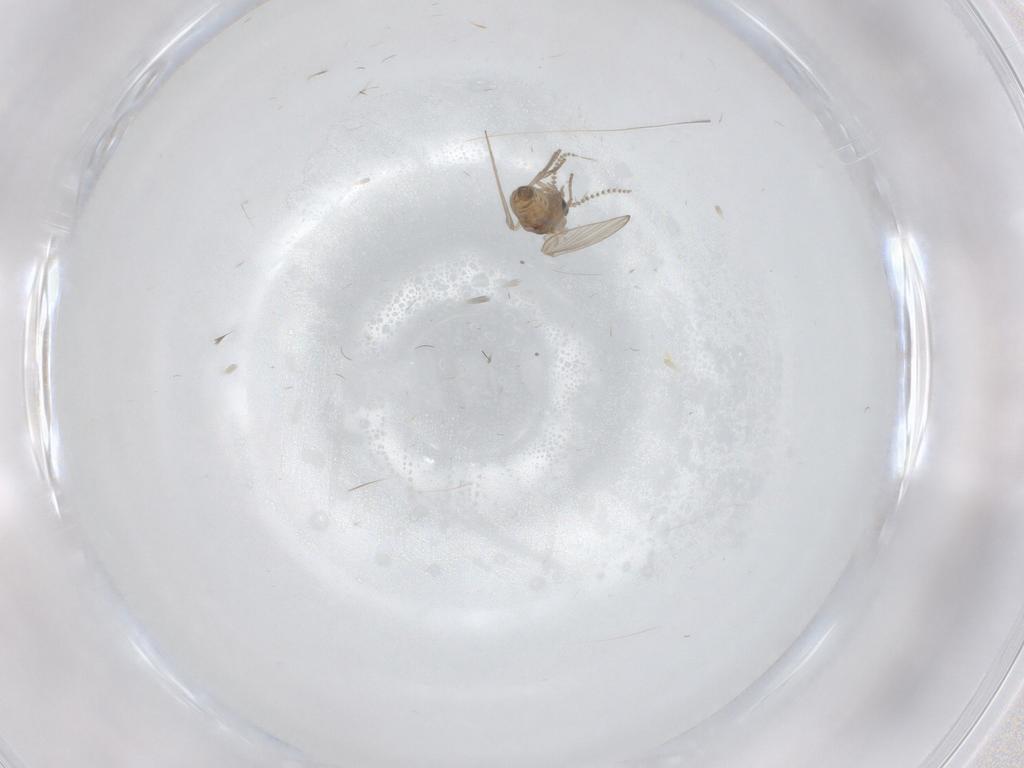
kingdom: Animalia
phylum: Arthropoda
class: Insecta
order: Diptera
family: Psychodidae
